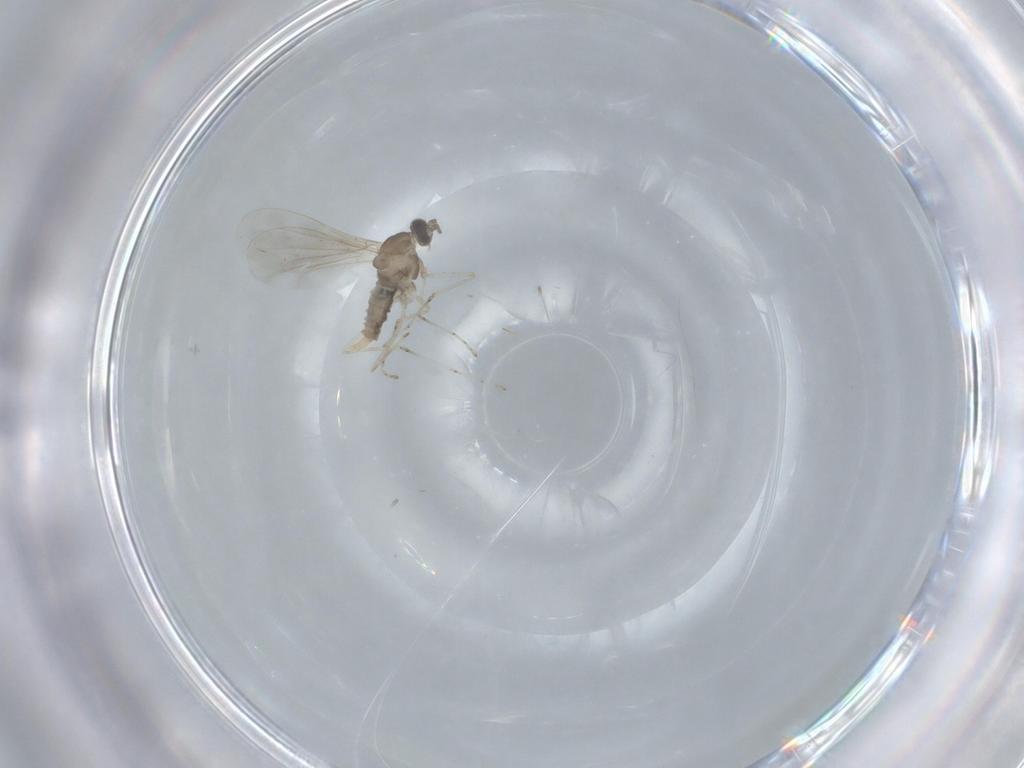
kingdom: Animalia
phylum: Arthropoda
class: Insecta
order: Diptera
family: Cecidomyiidae
